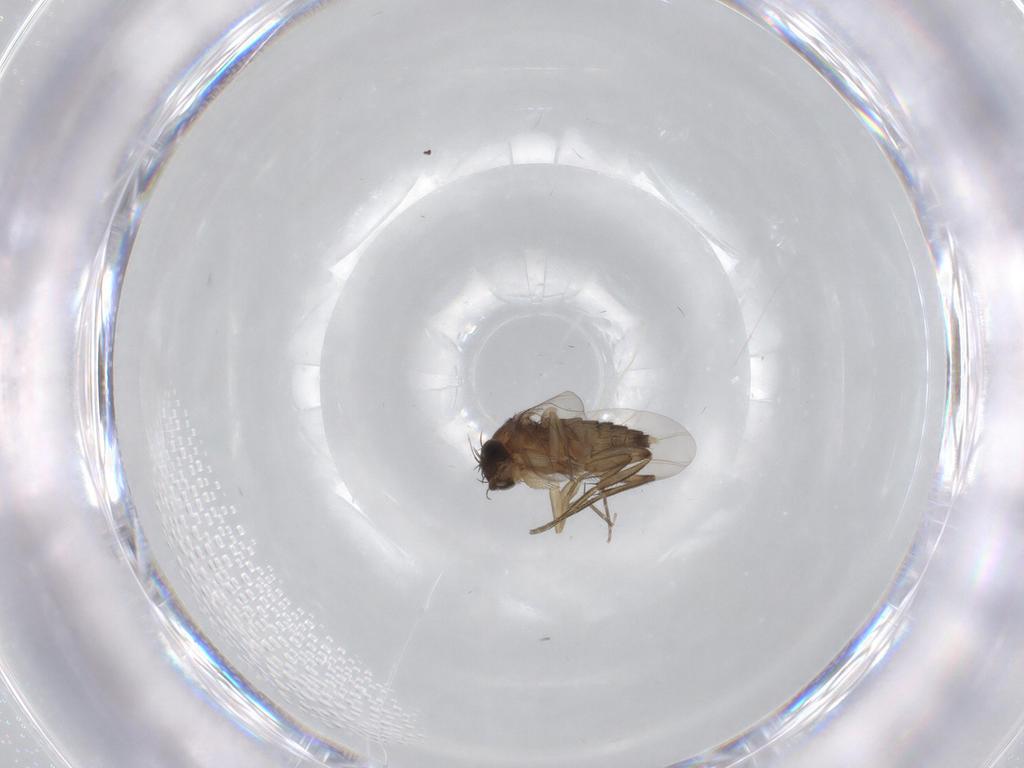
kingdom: Animalia
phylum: Arthropoda
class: Insecta
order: Diptera
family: Phoridae
